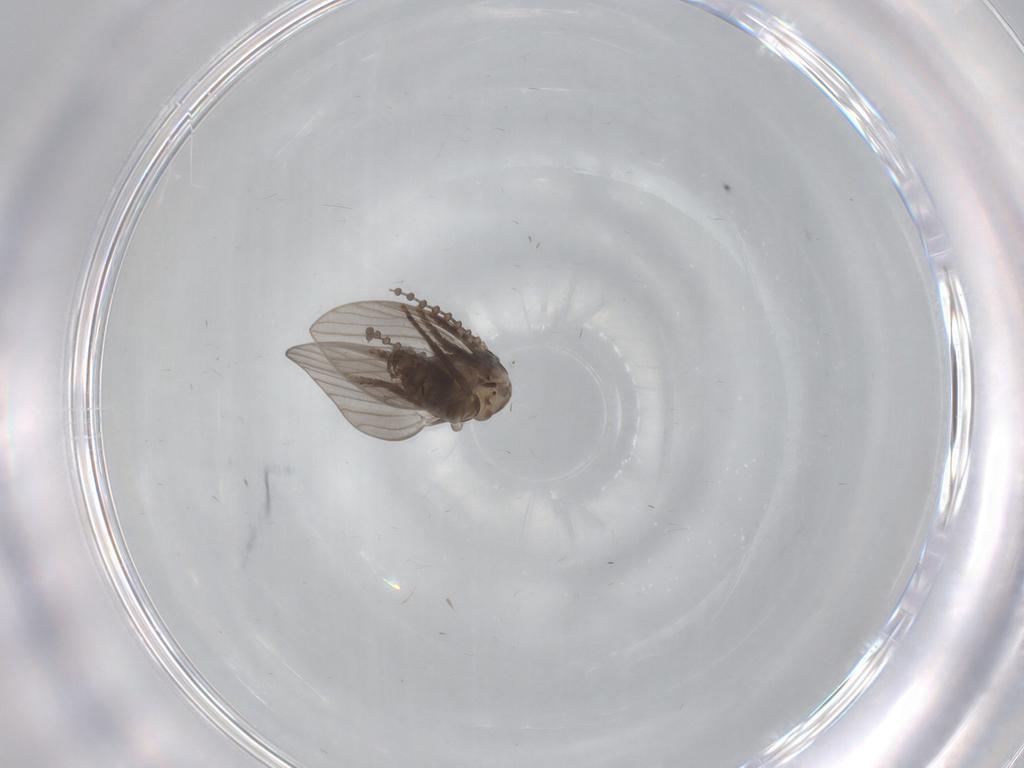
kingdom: Animalia
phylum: Arthropoda
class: Insecta
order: Diptera
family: Psychodidae
